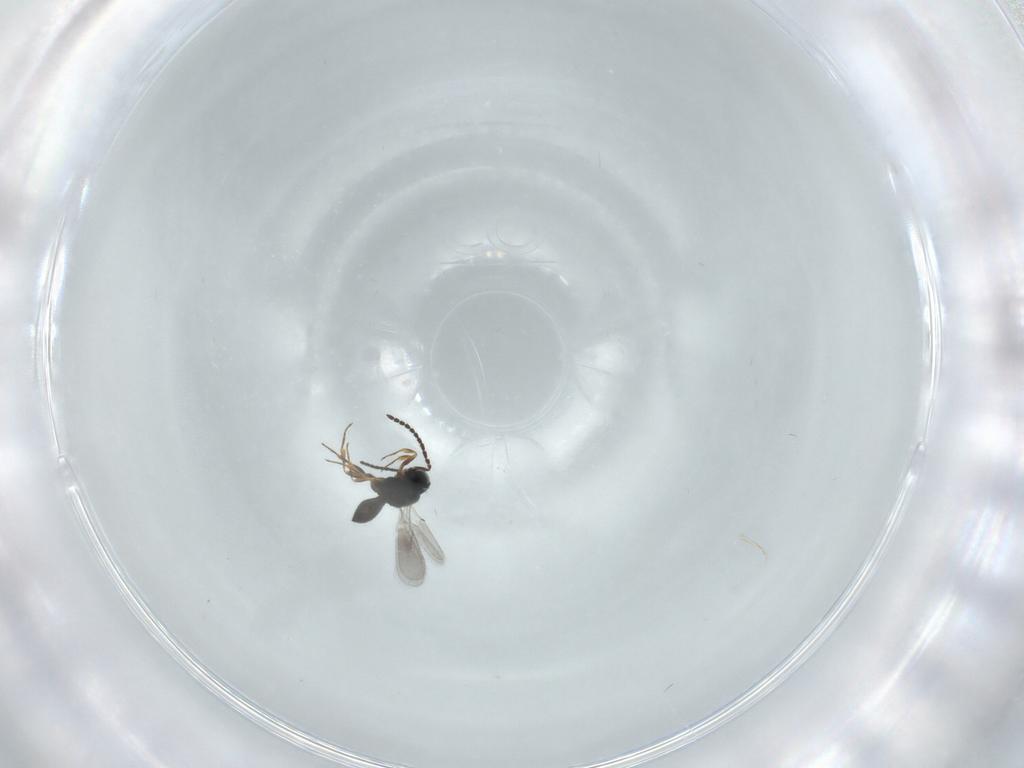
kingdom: Animalia
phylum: Arthropoda
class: Insecta
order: Hymenoptera
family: Scelionidae
